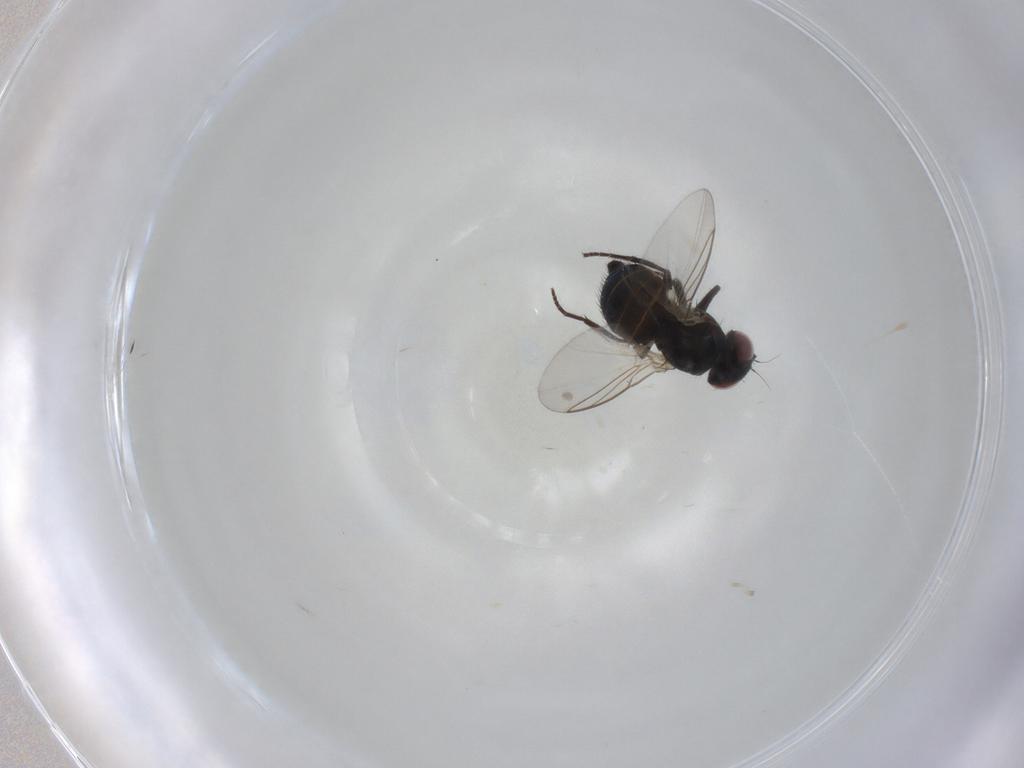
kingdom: Animalia
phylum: Arthropoda
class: Insecta
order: Diptera
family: Agromyzidae
